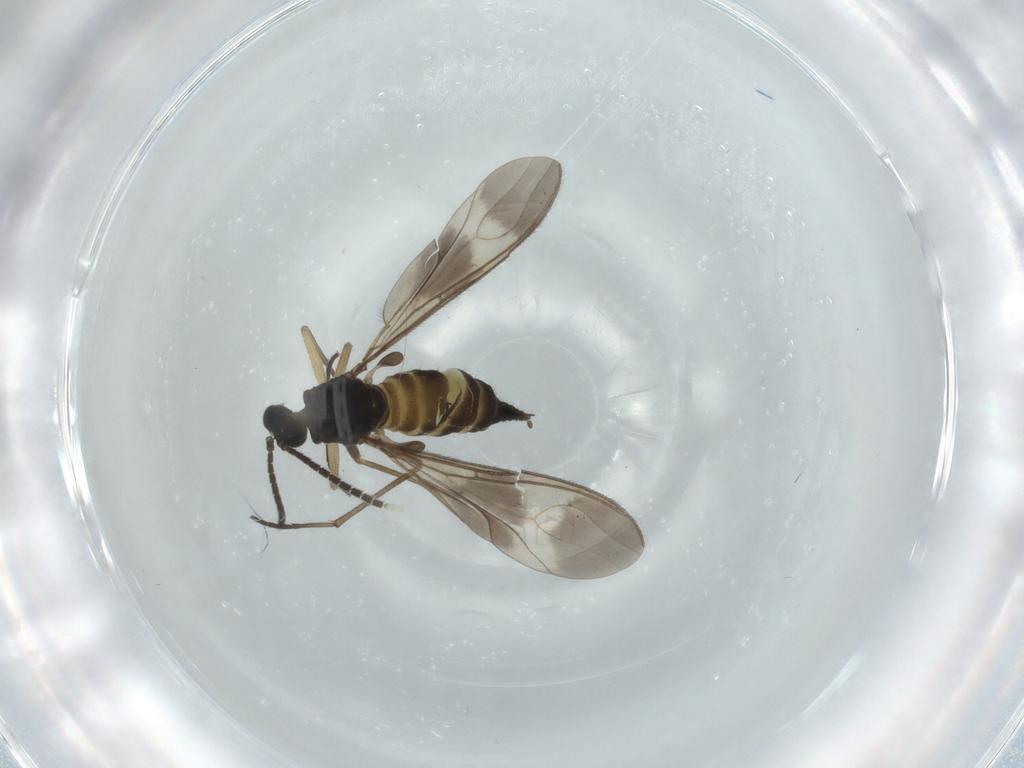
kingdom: Animalia
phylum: Arthropoda
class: Insecta
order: Diptera
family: Sciaridae
